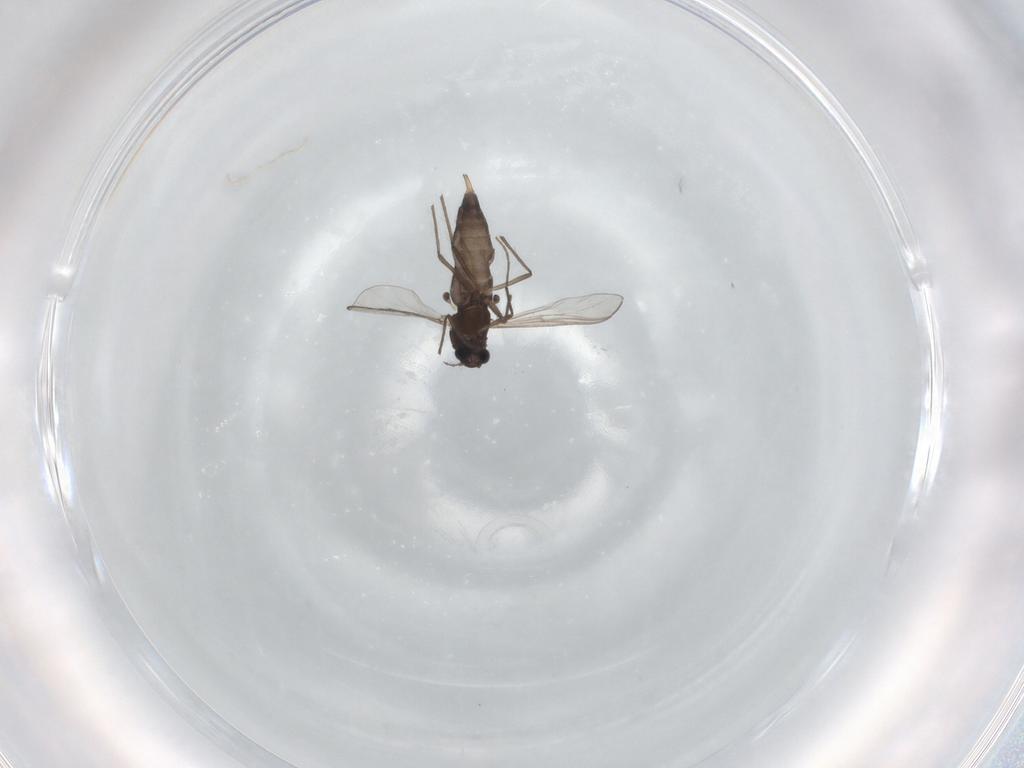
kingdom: Animalia
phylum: Arthropoda
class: Insecta
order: Diptera
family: Chironomidae
